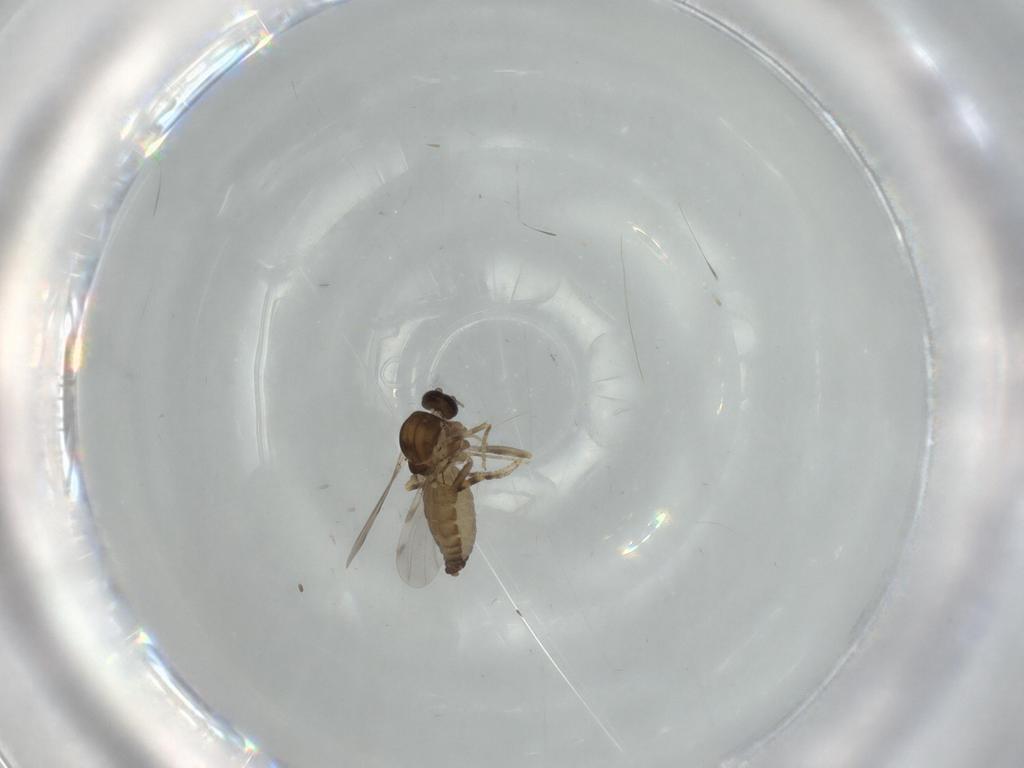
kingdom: Animalia
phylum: Arthropoda
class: Insecta
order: Diptera
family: Ceratopogonidae
